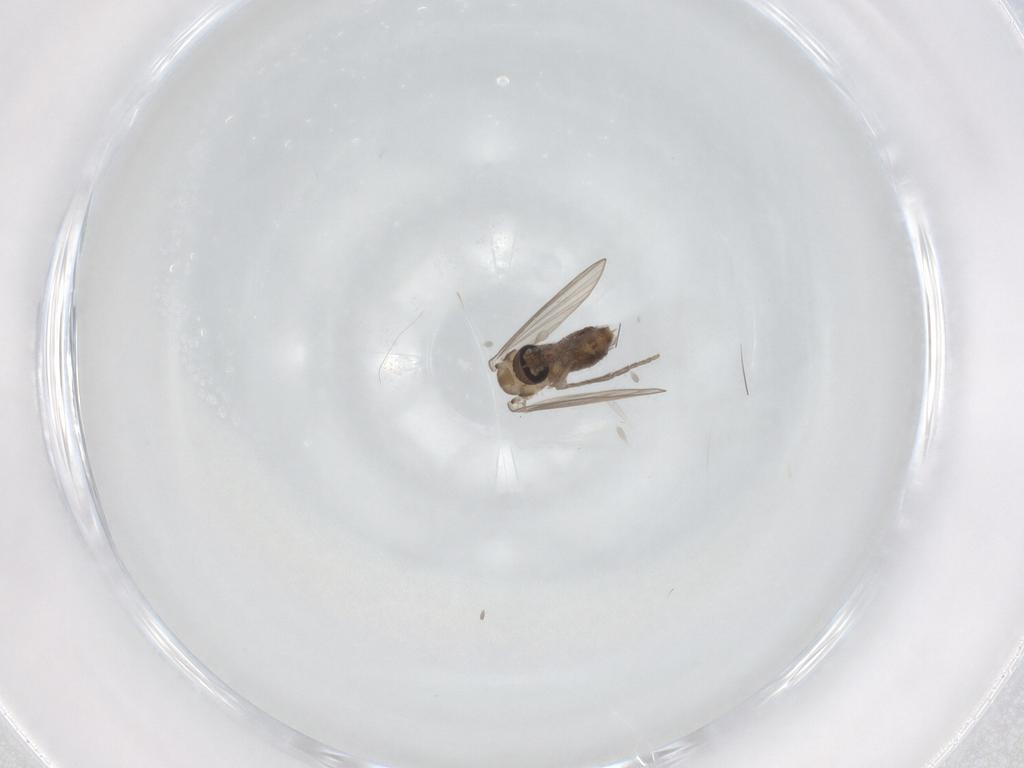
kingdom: Animalia
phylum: Arthropoda
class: Insecta
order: Diptera
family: Psychodidae
